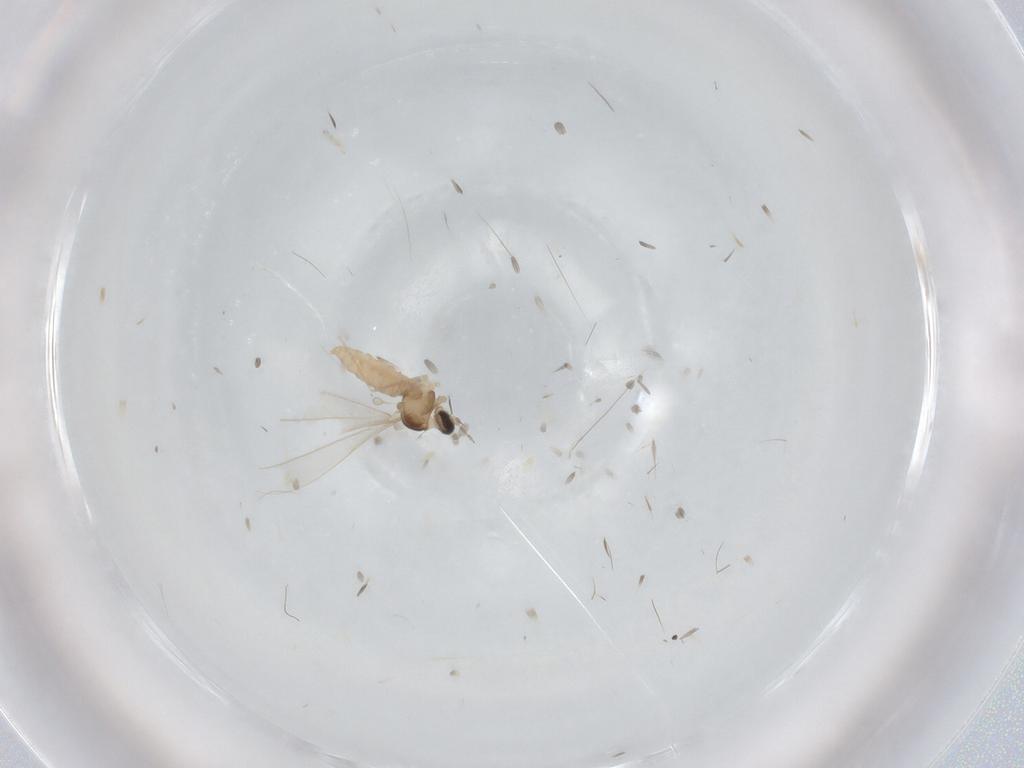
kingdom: Animalia
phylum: Arthropoda
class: Insecta
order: Diptera
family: Cecidomyiidae
